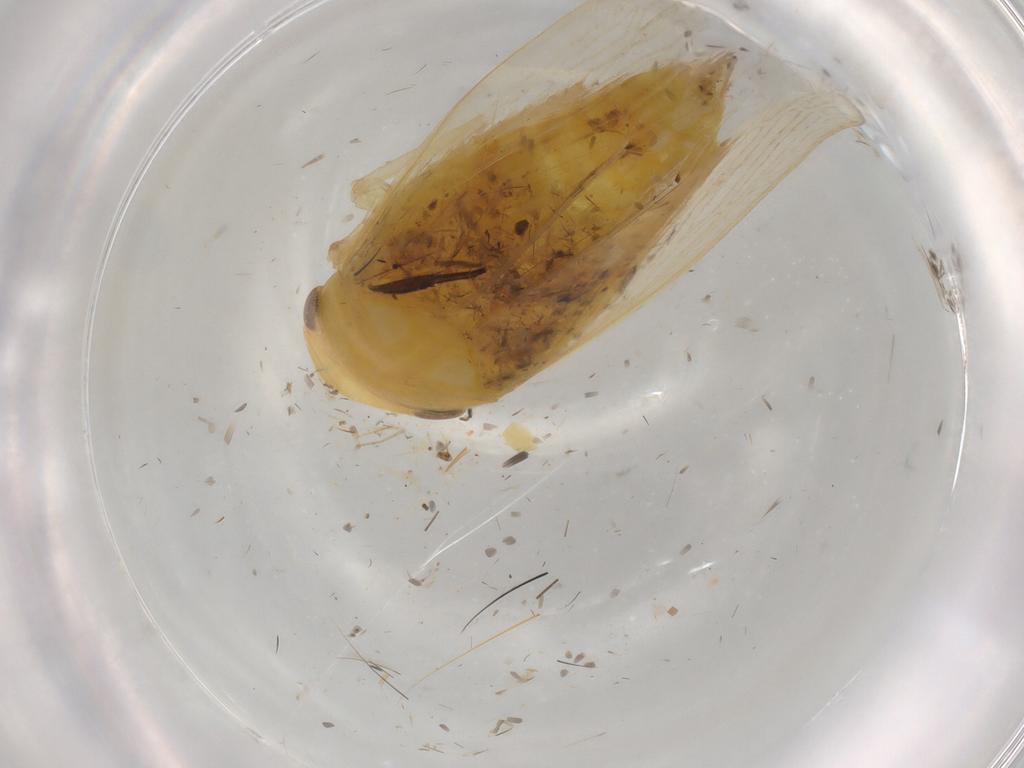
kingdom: Animalia
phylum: Arthropoda
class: Insecta
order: Hemiptera
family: Cicadellidae
